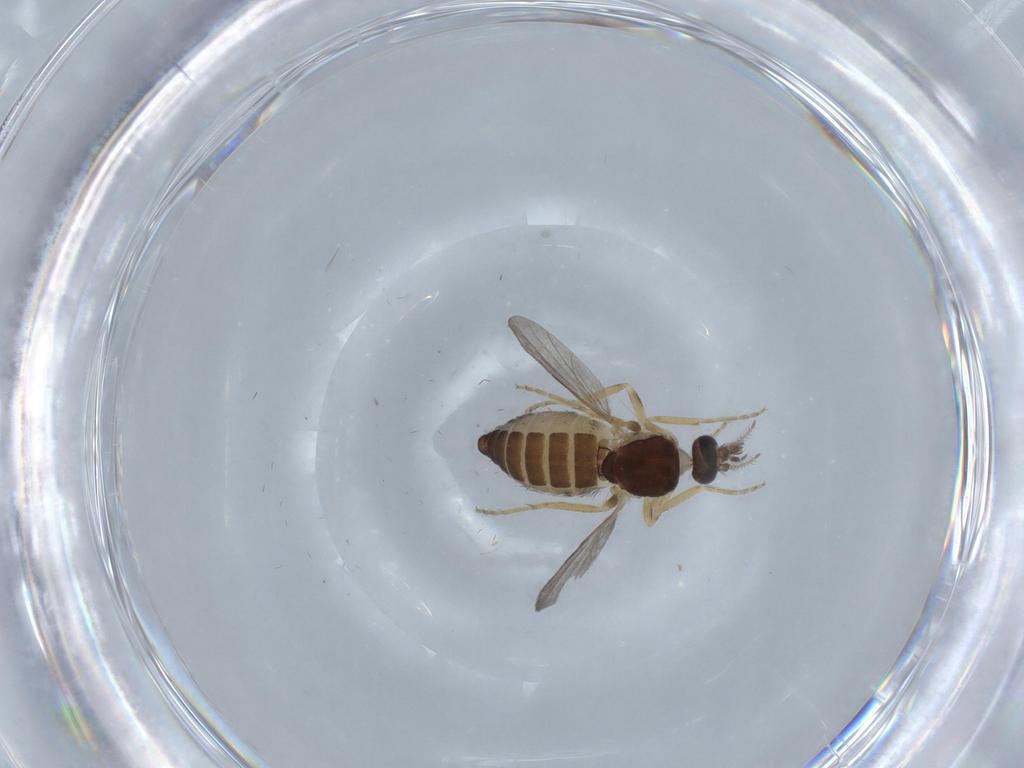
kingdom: Animalia
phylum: Arthropoda
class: Insecta
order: Diptera
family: Ceratopogonidae
